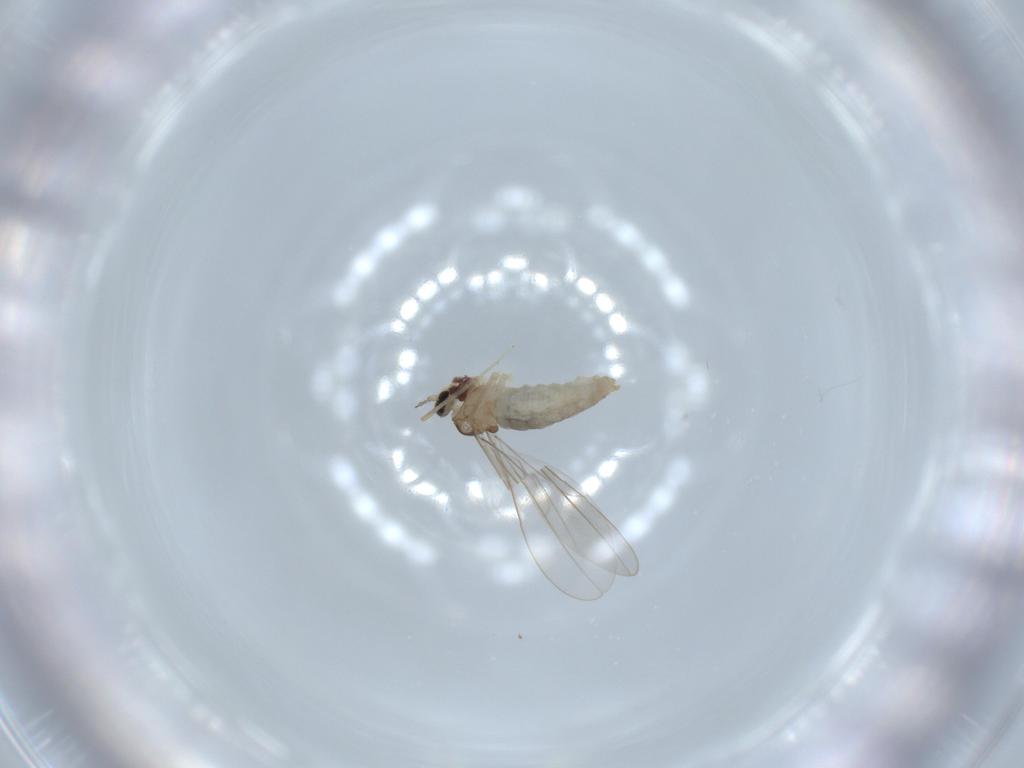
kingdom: Animalia
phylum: Arthropoda
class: Insecta
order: Diptera
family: Cecidomyiidae
